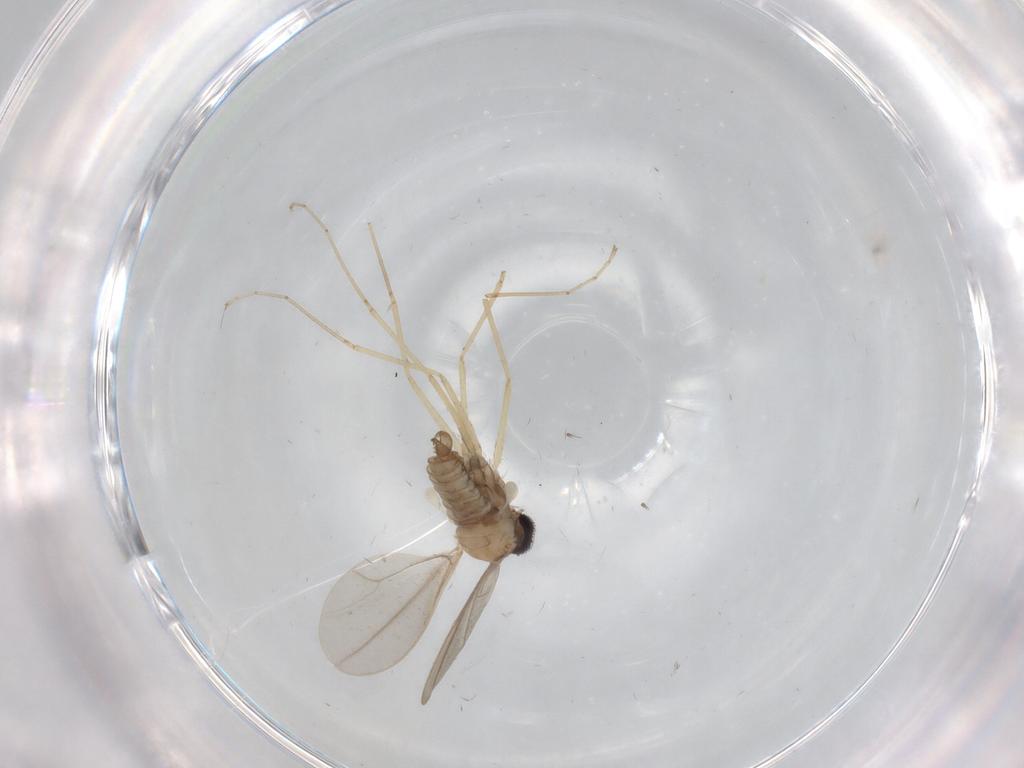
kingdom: Animalia
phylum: Arthropoda
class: Insecta
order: Diptera
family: Cecidomyiidae
